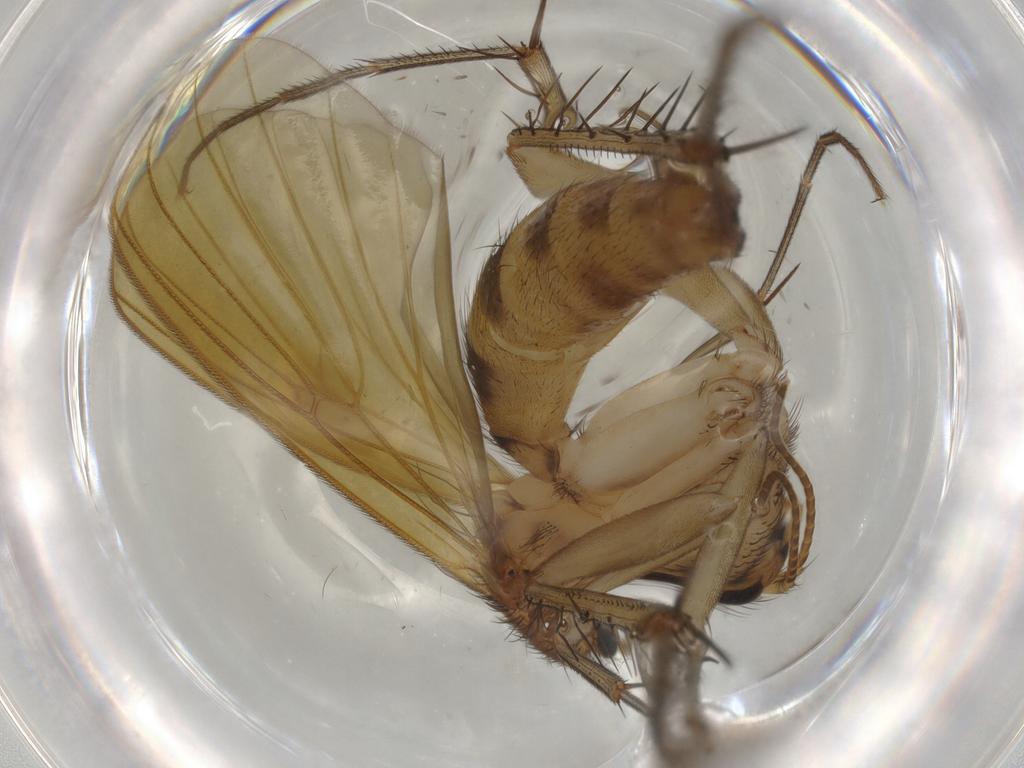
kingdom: Animalia
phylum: Arthropoda
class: Insecta
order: Diptera
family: Mycetophilidae
